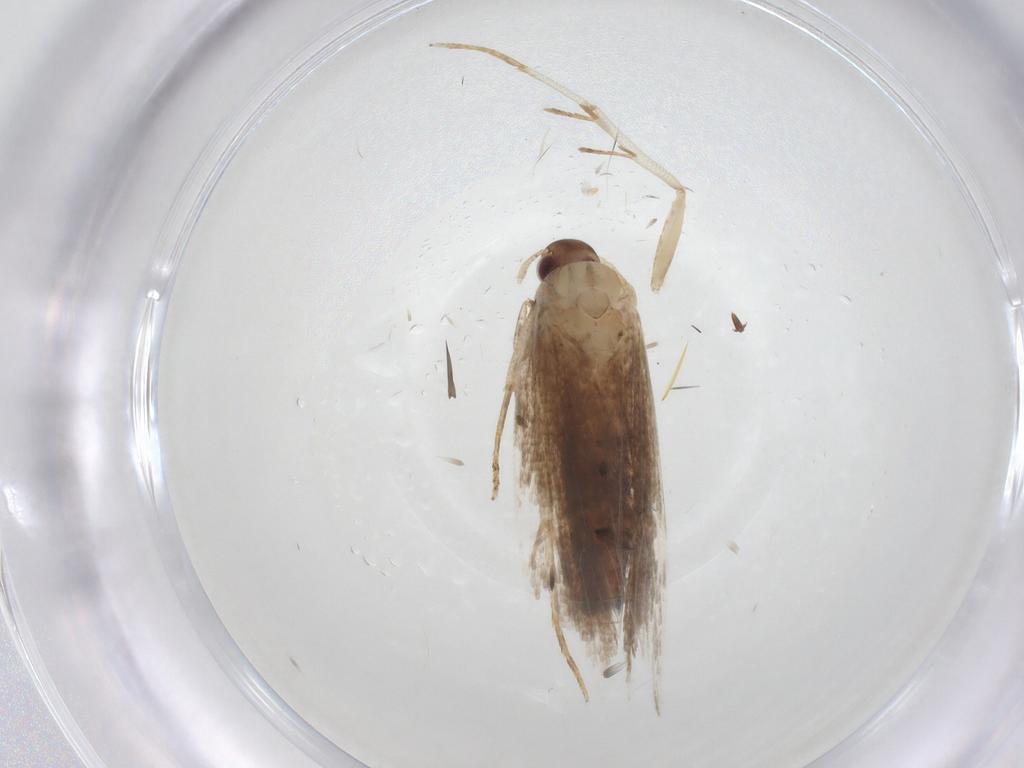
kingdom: Animalia
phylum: Arthropoda
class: Insecta
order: Lepidoptera
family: Gelechiidae
